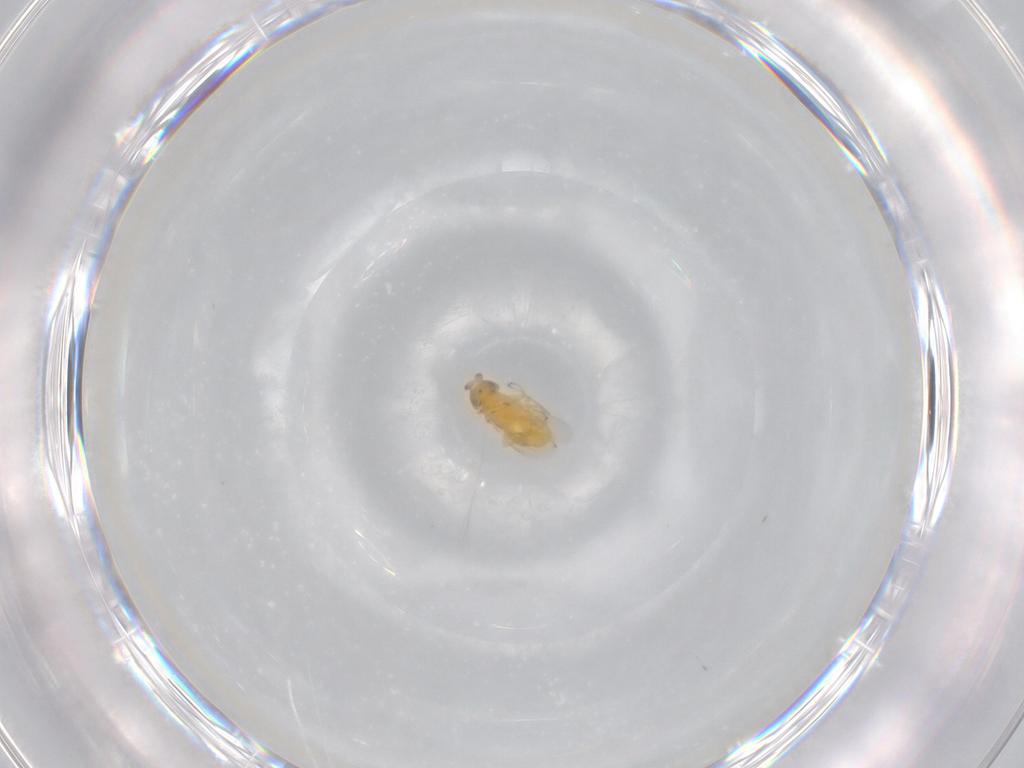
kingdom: Animalia
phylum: Arthropoda
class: Insecta
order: Hymenoptera
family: Encyrtidae
